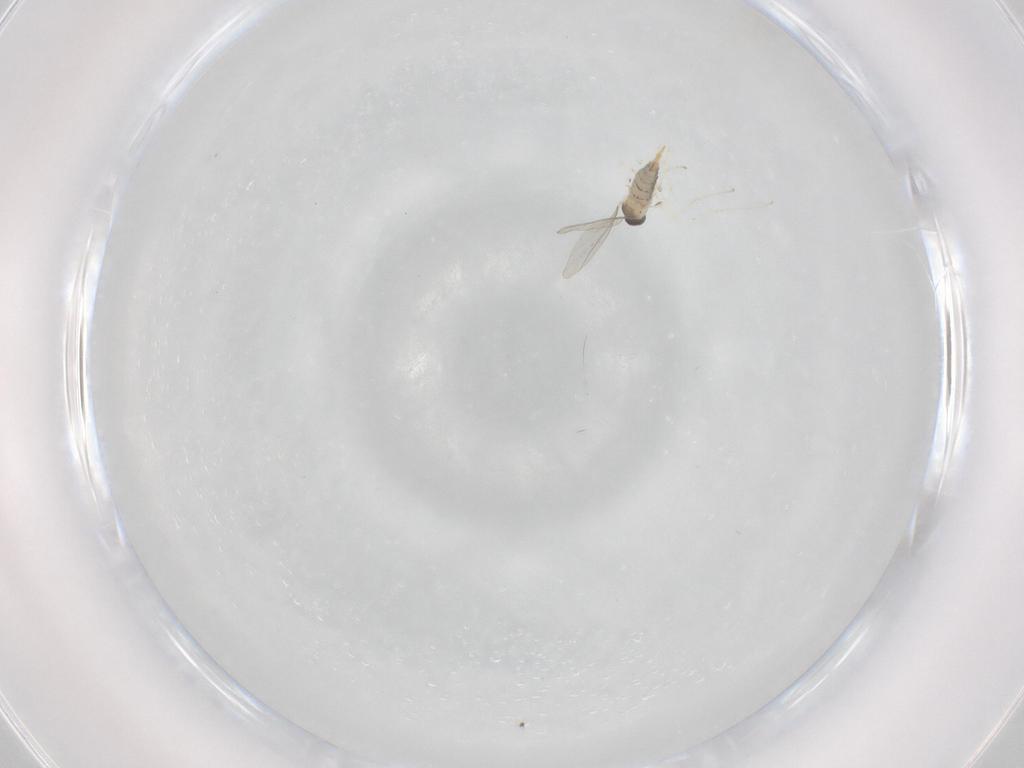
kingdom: Animalia
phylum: Arthropoda
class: Insecta
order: Diptera
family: Cecidomyiidae
